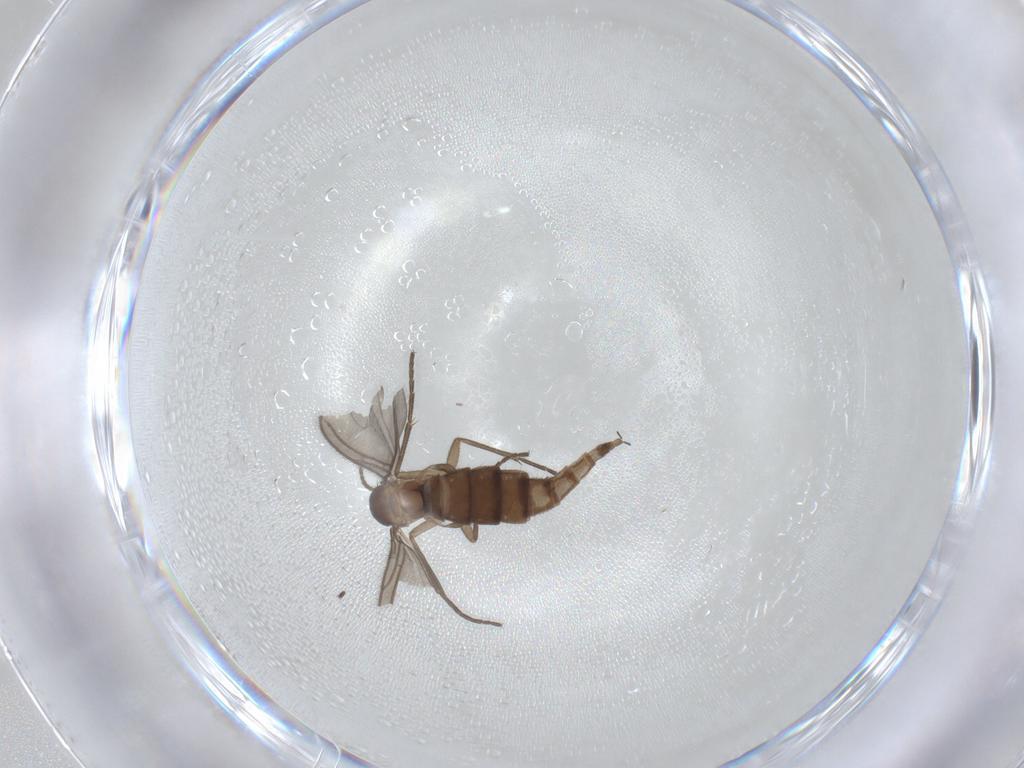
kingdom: Animalia
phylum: Arthropoda
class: Insecta
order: Diptera
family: Sciaridae
